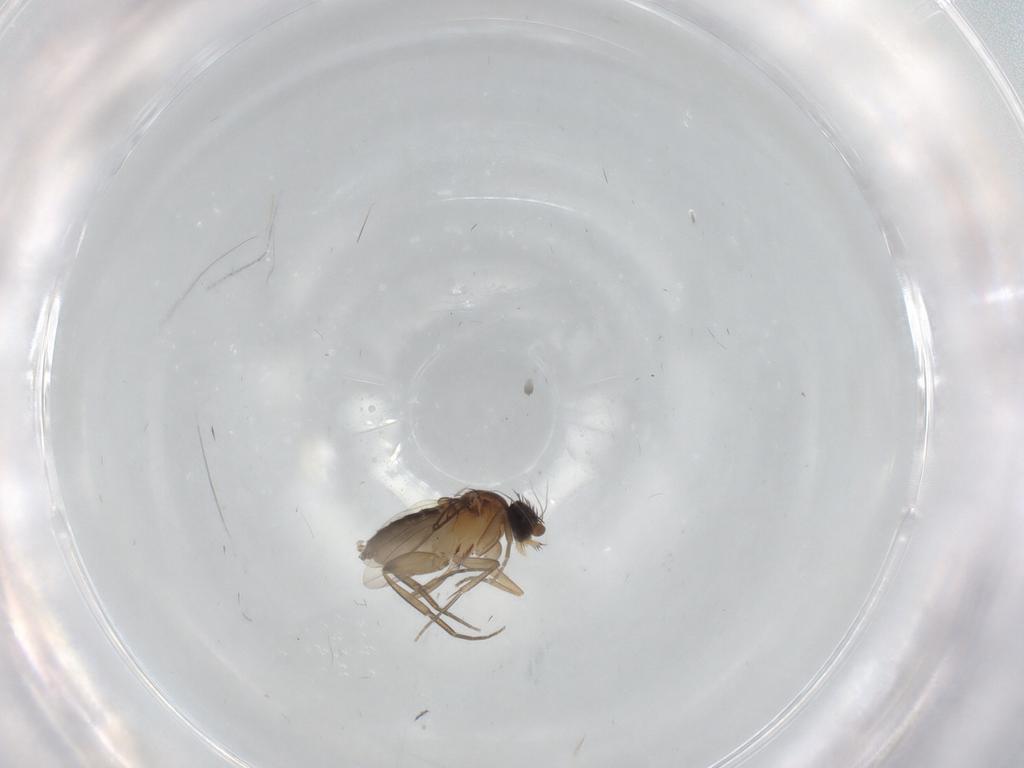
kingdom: Animalia
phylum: Arthropoda
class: Insecta
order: Diptera
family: Phoridae
